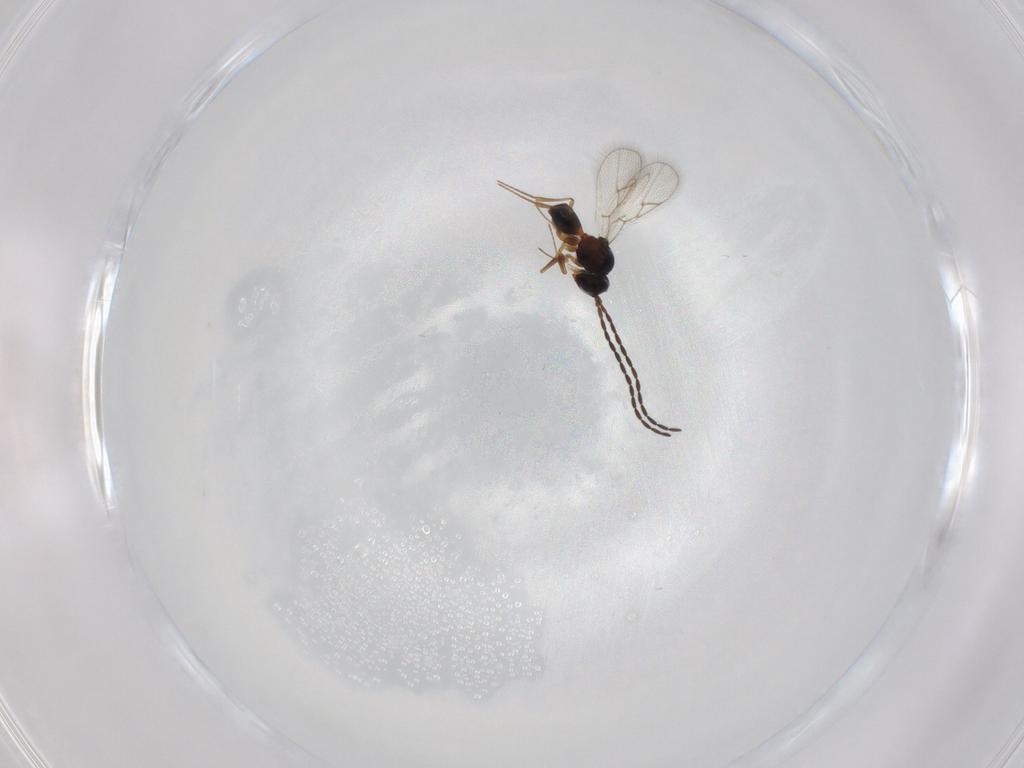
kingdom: Animalia
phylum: Arthropoda
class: Insecta
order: Hymenoptera
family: Figitidae
